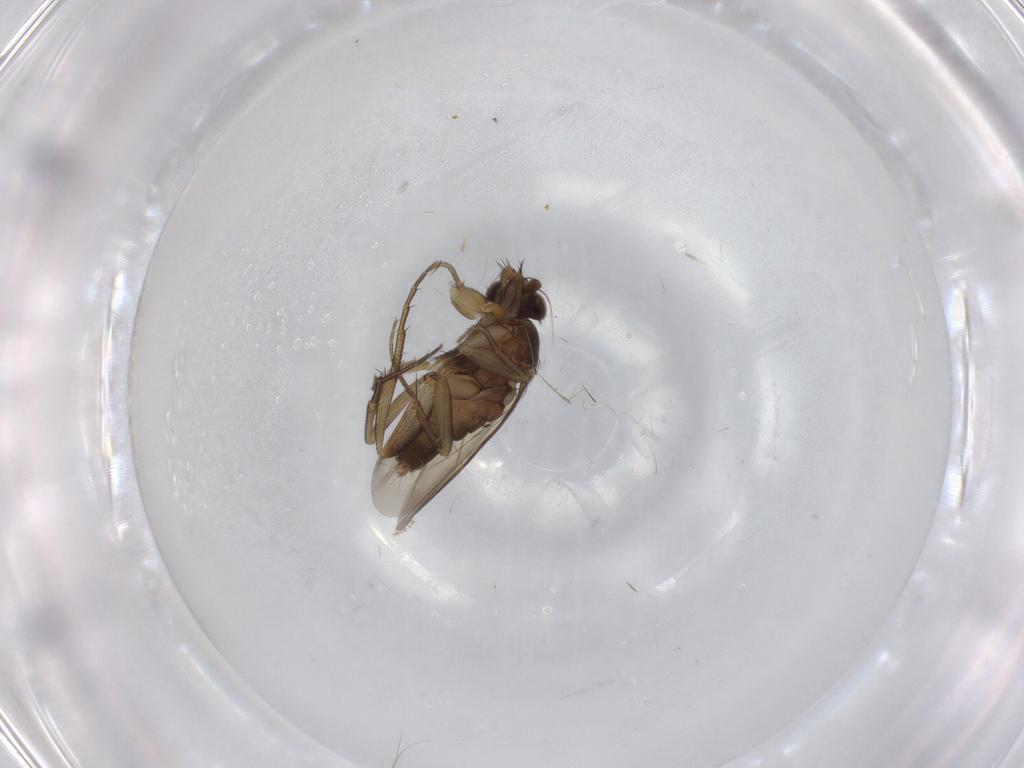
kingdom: Animalia
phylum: Arthropoda
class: Insecta
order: Diptera
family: Phoridae
